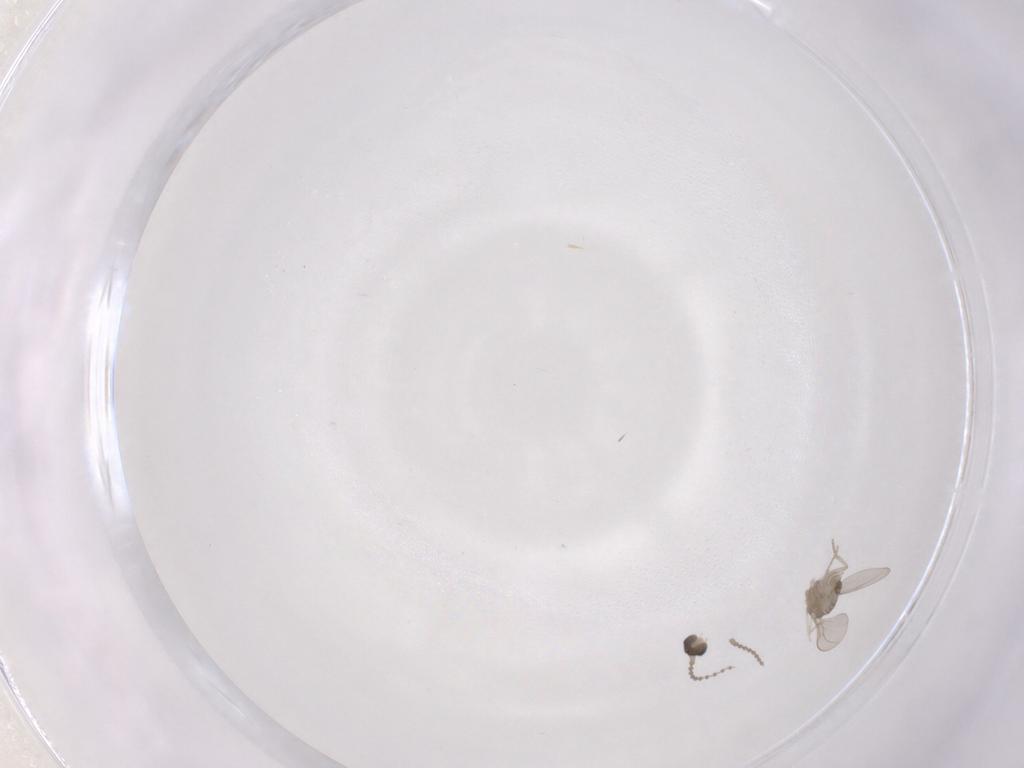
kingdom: Animalia
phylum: Arthropoda
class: Insecta
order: Diptera
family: Cecidomyiidae
